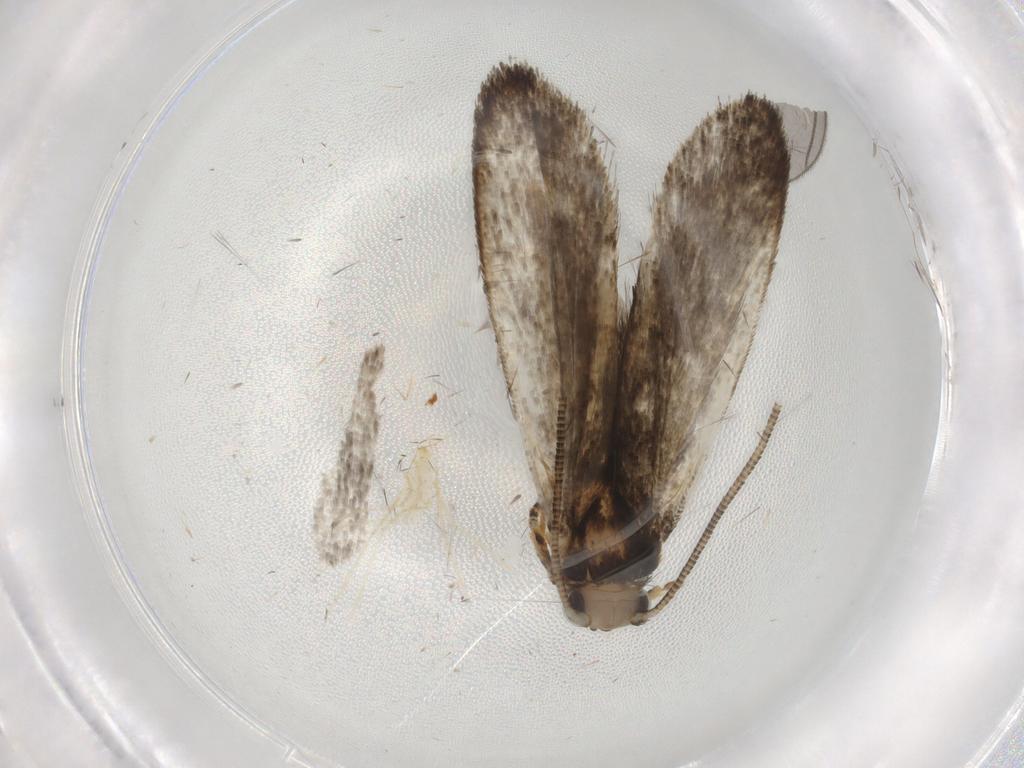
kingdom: Animalia
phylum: Arthropoda
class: Insecta
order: Lepidoptera
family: Tineidae
